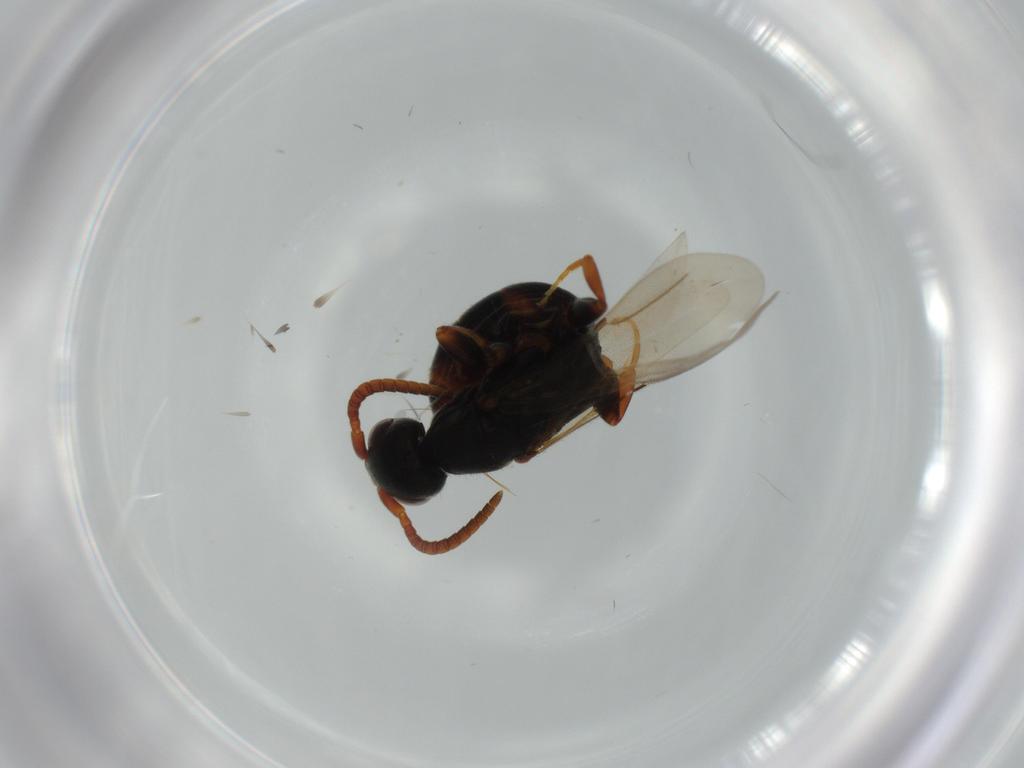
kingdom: Animalia
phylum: Arthropoda
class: Insecta
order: Hymenoptera
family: Bethylidae
